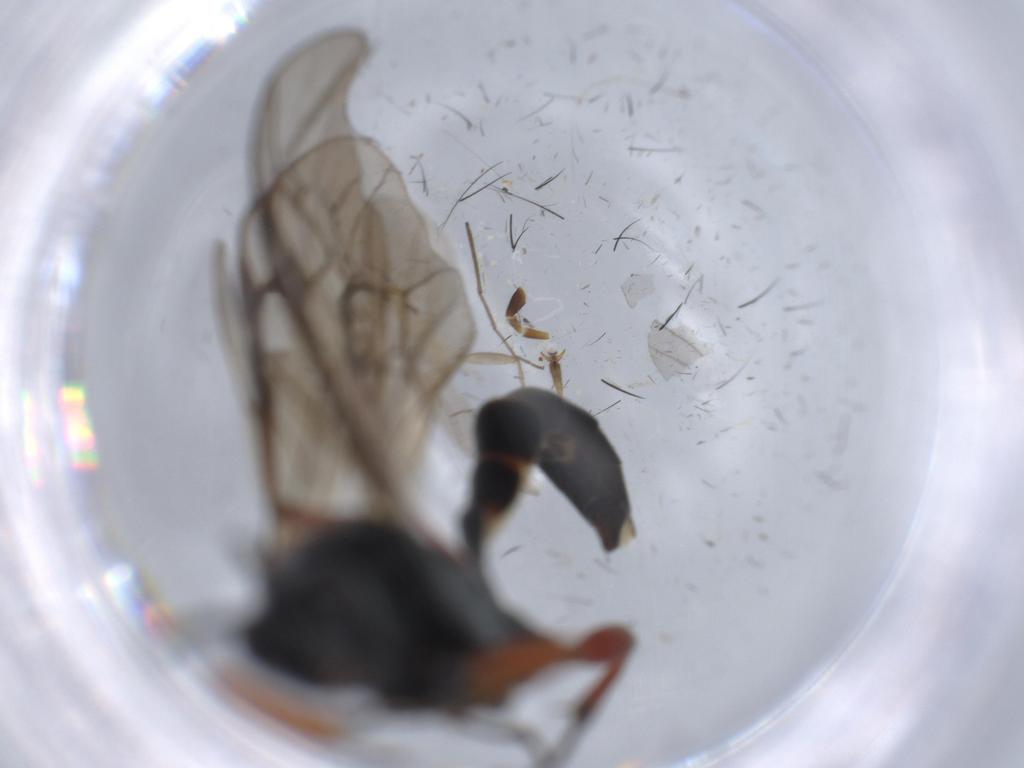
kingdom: Animalia
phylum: Arthropoda
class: Insecta
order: Hymenoptera
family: Ichneumonidae
